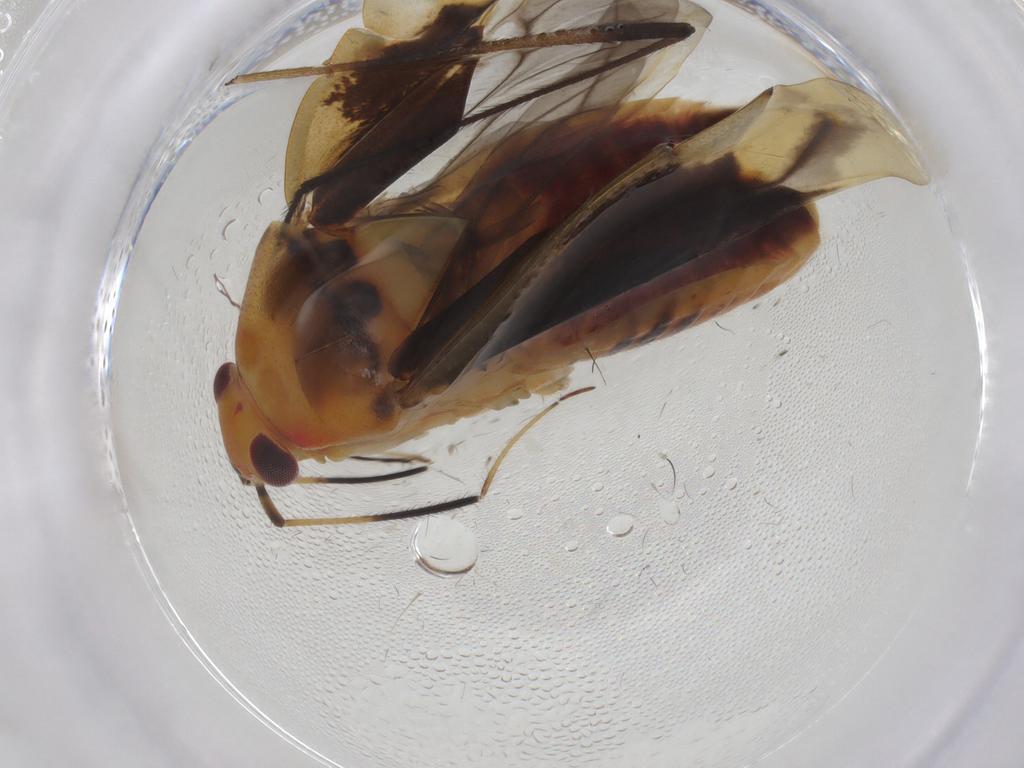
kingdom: Animalia
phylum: Arthropoda
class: Insecta
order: Hemiptera
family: Miridae
